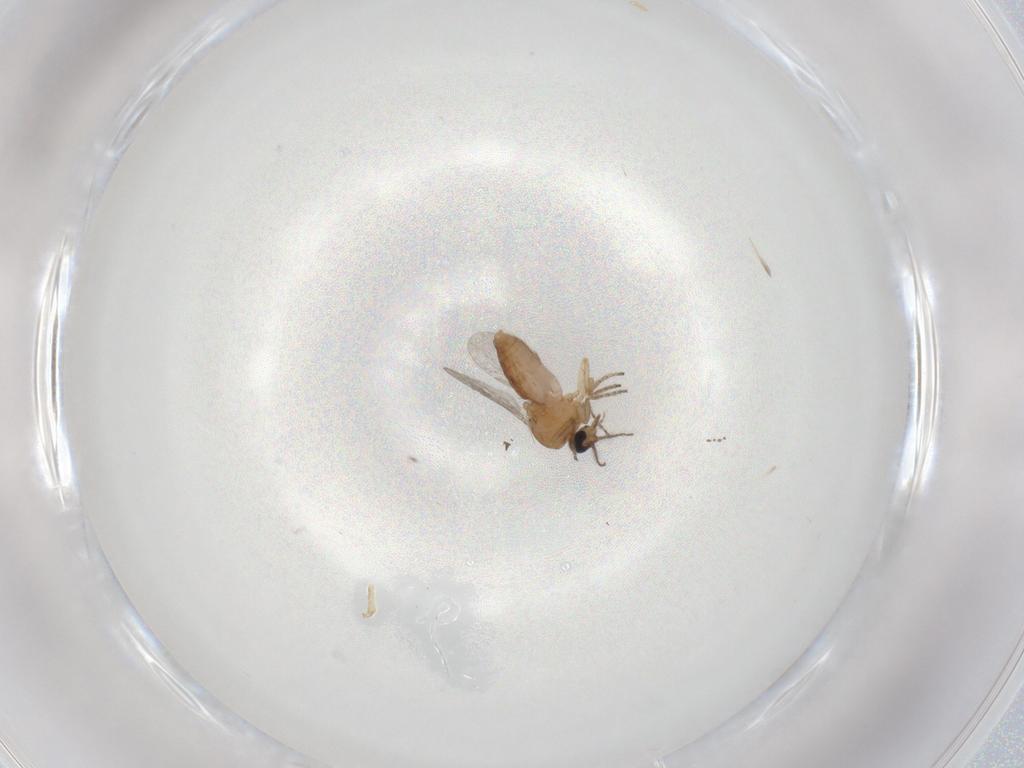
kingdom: Animalia
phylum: Arthropoda
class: Insecta
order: Diptera
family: Ceratopogonidae
